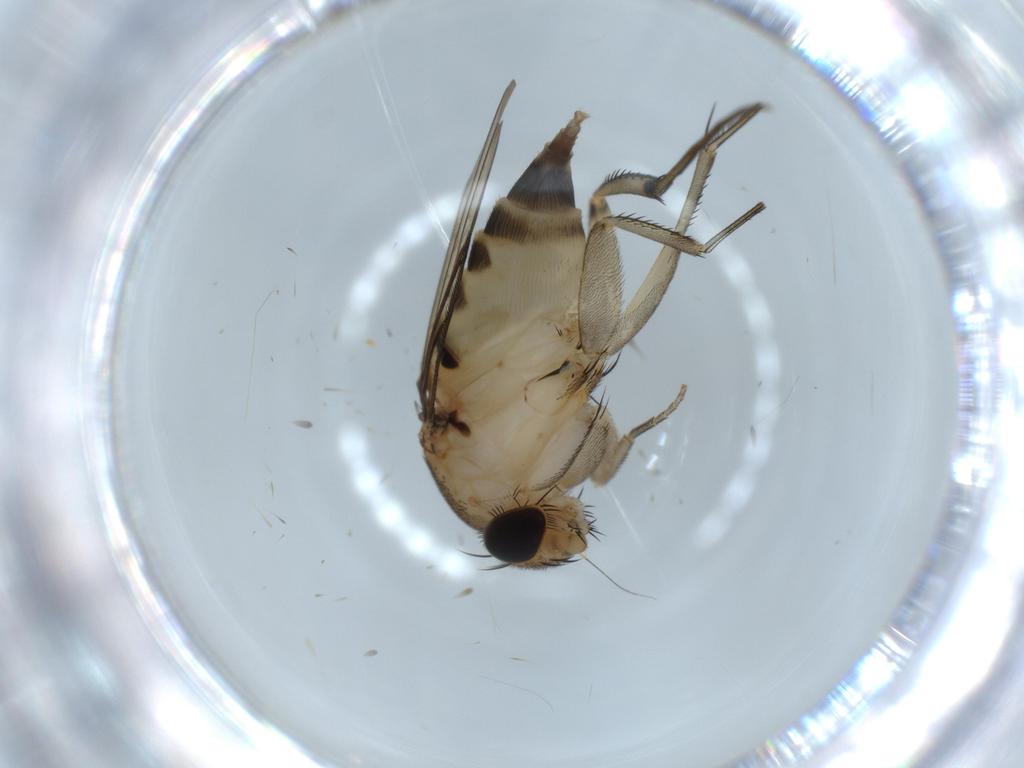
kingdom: Animalia
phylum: Arthropoda
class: Insecta
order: Diptera
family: Phoridae
